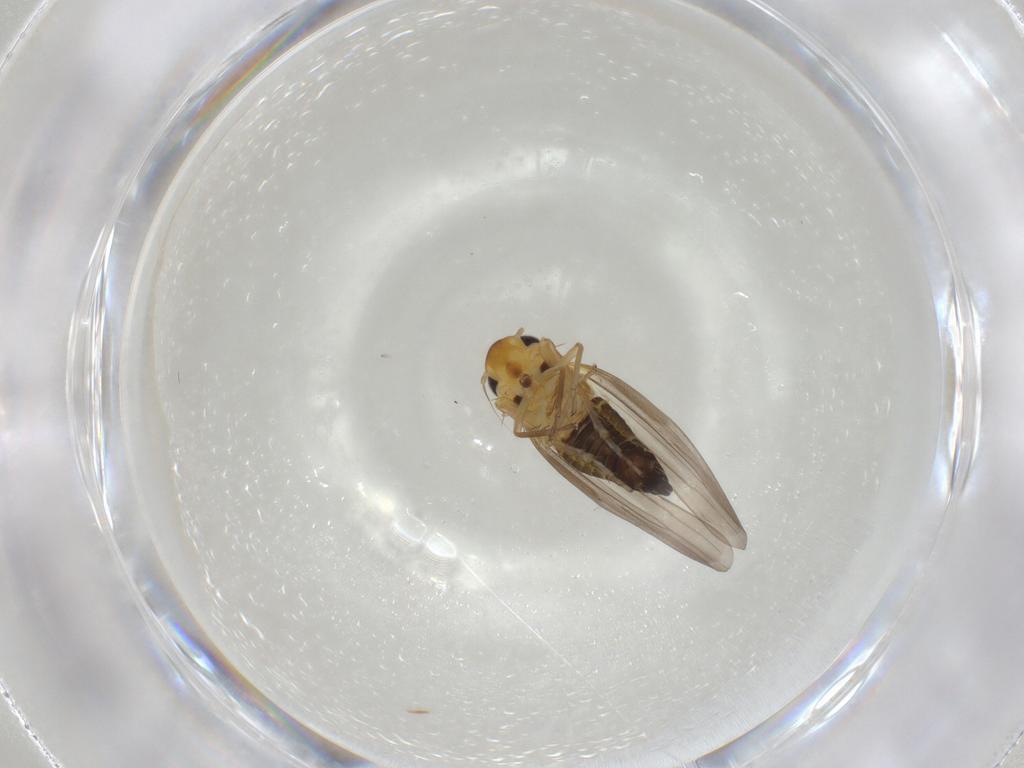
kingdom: Animalia
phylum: Arthropoda
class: Insecta
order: Hemiptera
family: Cicadellidae
